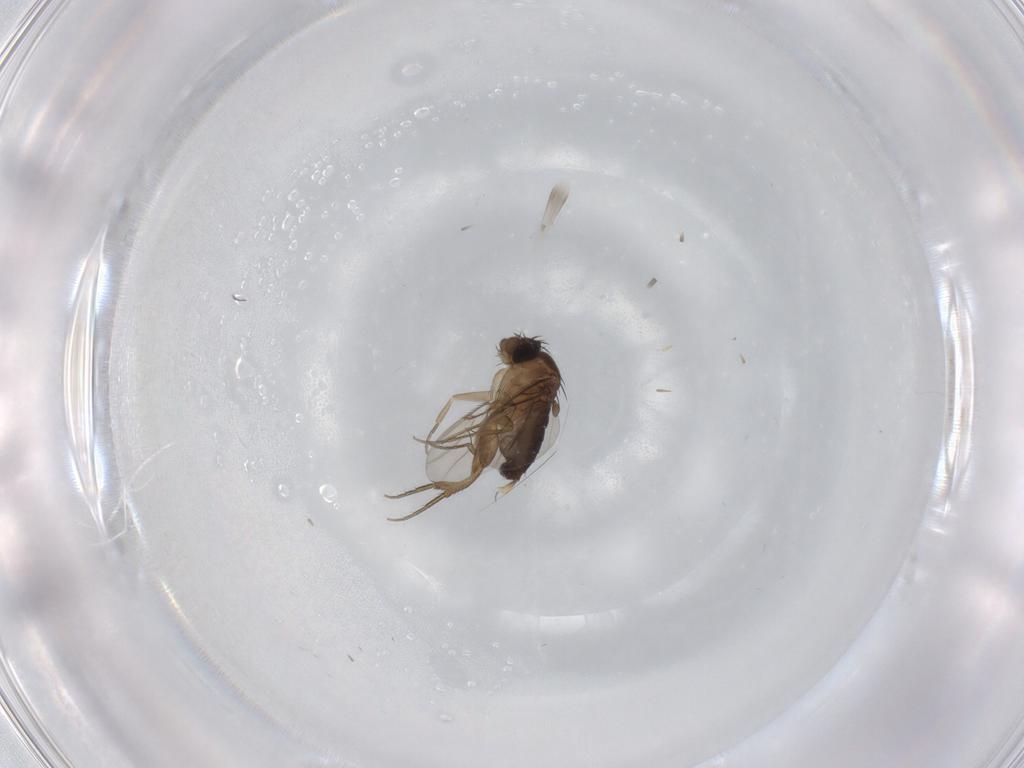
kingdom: Animalia
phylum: Arthropoda
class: Insecta
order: Diptera
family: Phoridae
